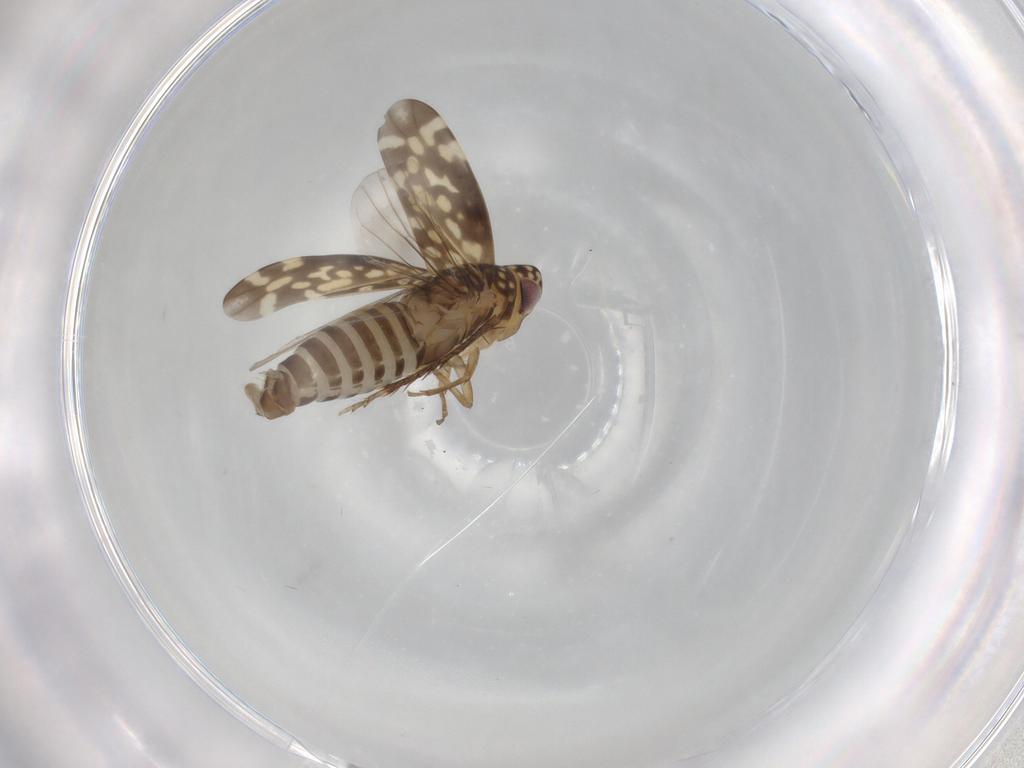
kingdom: Animalia
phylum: Arthropoda
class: Insecta
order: Hemiptera
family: Cicadellidae
